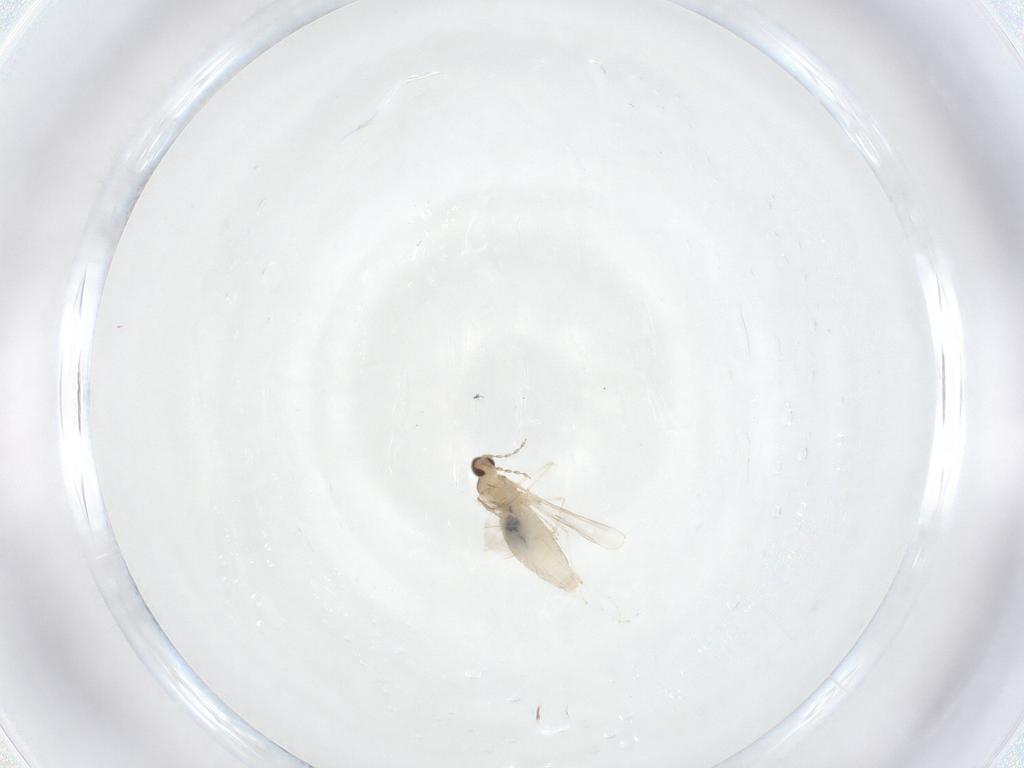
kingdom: Animalia
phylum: Arthropoda
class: Insecta
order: Diptera
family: Cecidomyiidae
